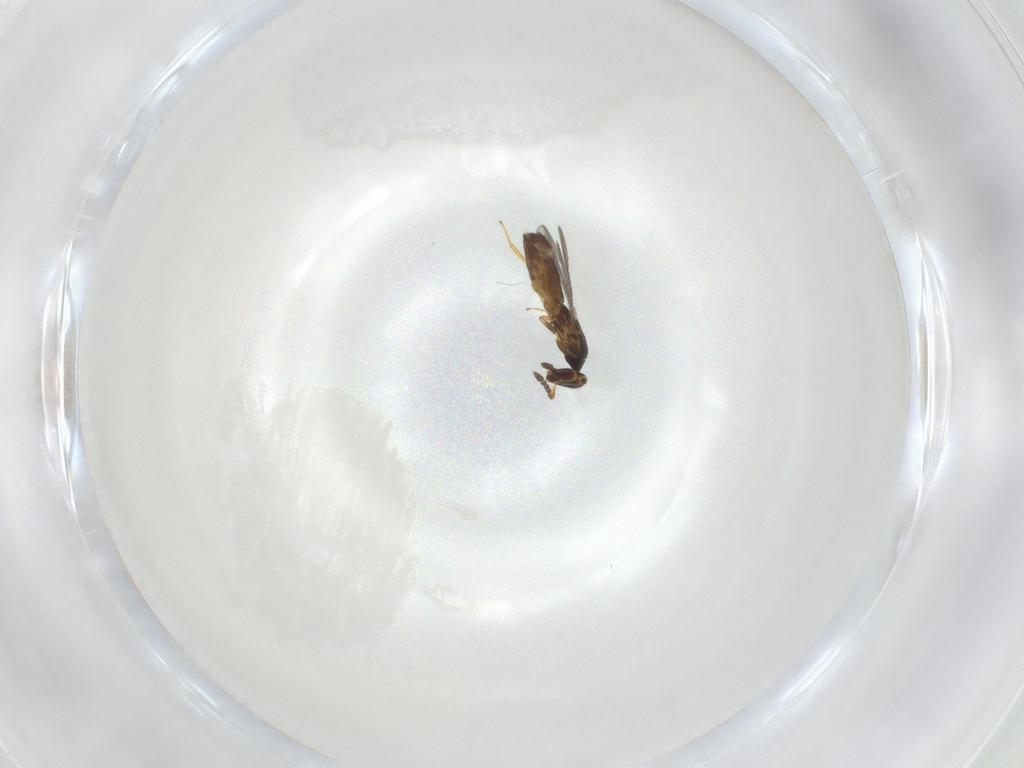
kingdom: Animalia
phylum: Arthropoda
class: Insecta
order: Hymenoptera
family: Eulophidae
